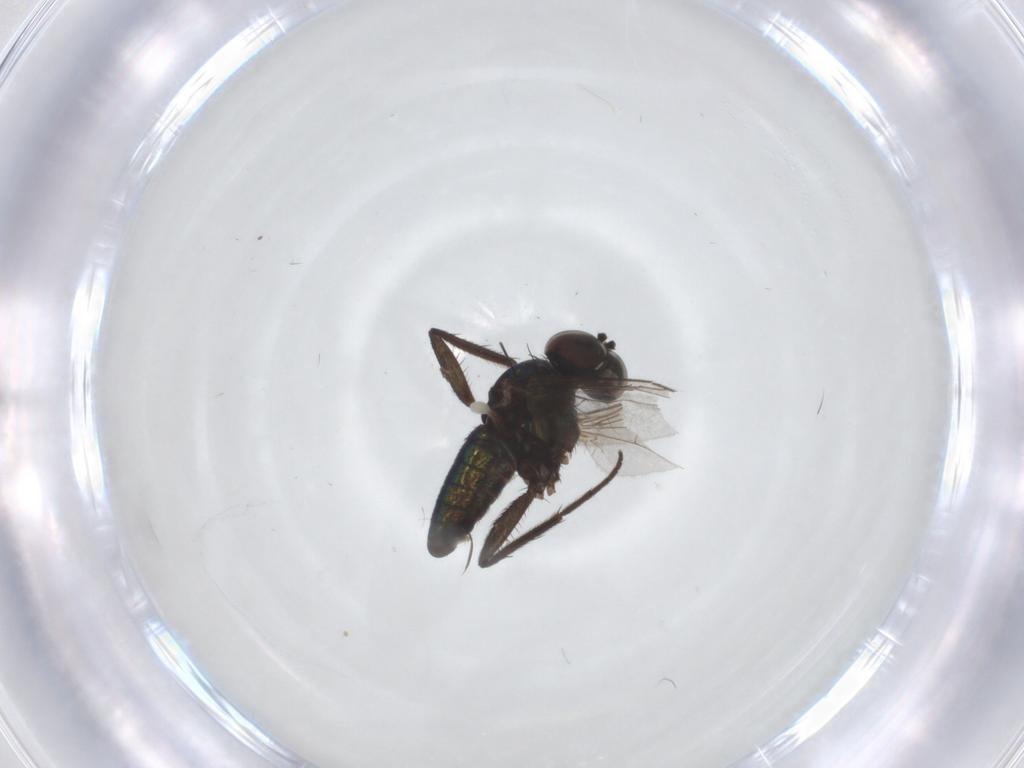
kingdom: Animalia
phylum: Arthropoda
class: Insecta
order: Diptera
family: Dolichopodidae
